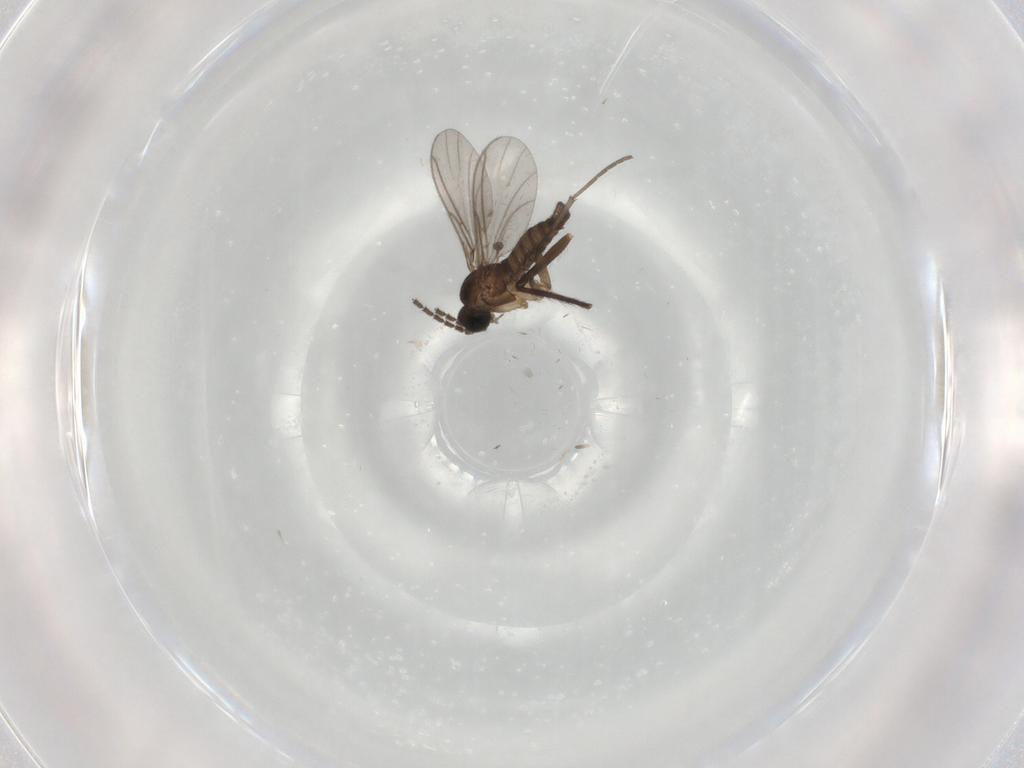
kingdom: Animalia
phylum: Arthropoda
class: Insecta
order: Diptera
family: Chironomidae
